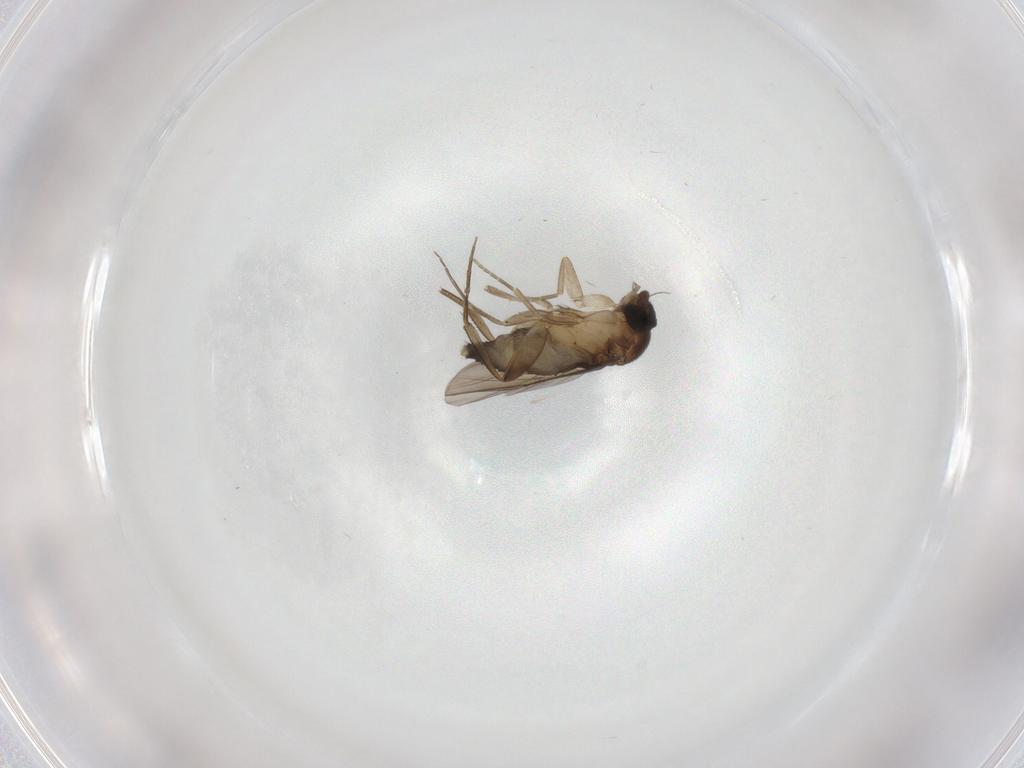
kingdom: Animalia
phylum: Arthropoda
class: Insecta
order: Diptera
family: Phoridae
